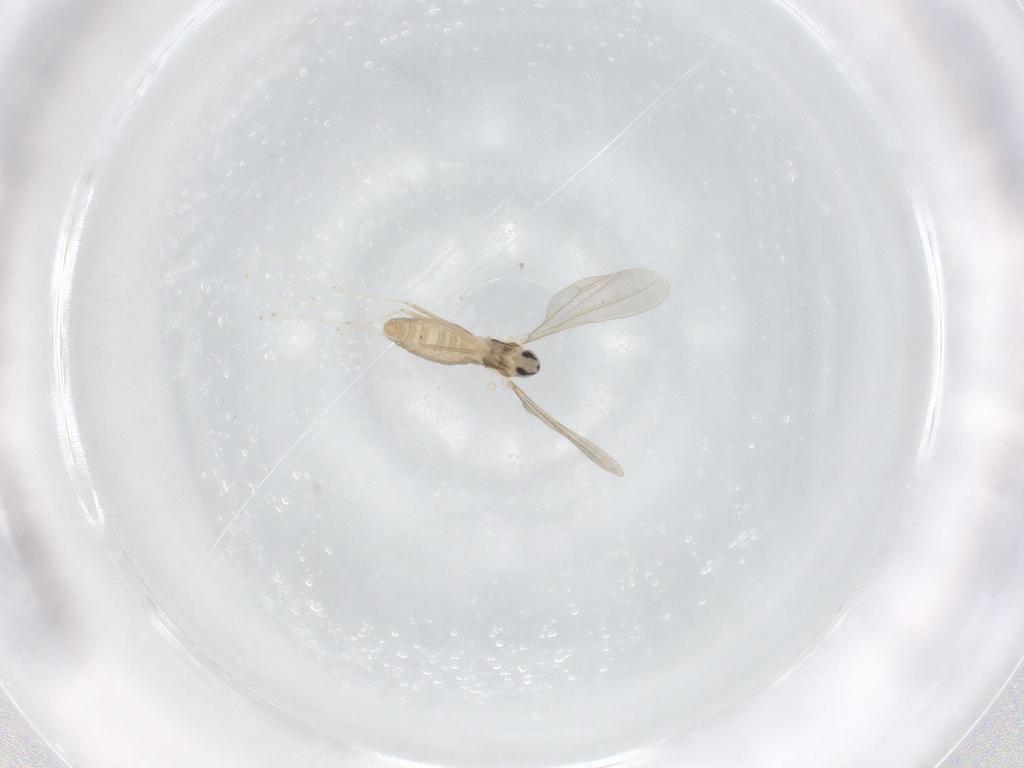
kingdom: Animalia
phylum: Arthropoda
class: Insecta
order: Diptera
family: Cecidomyiidae
